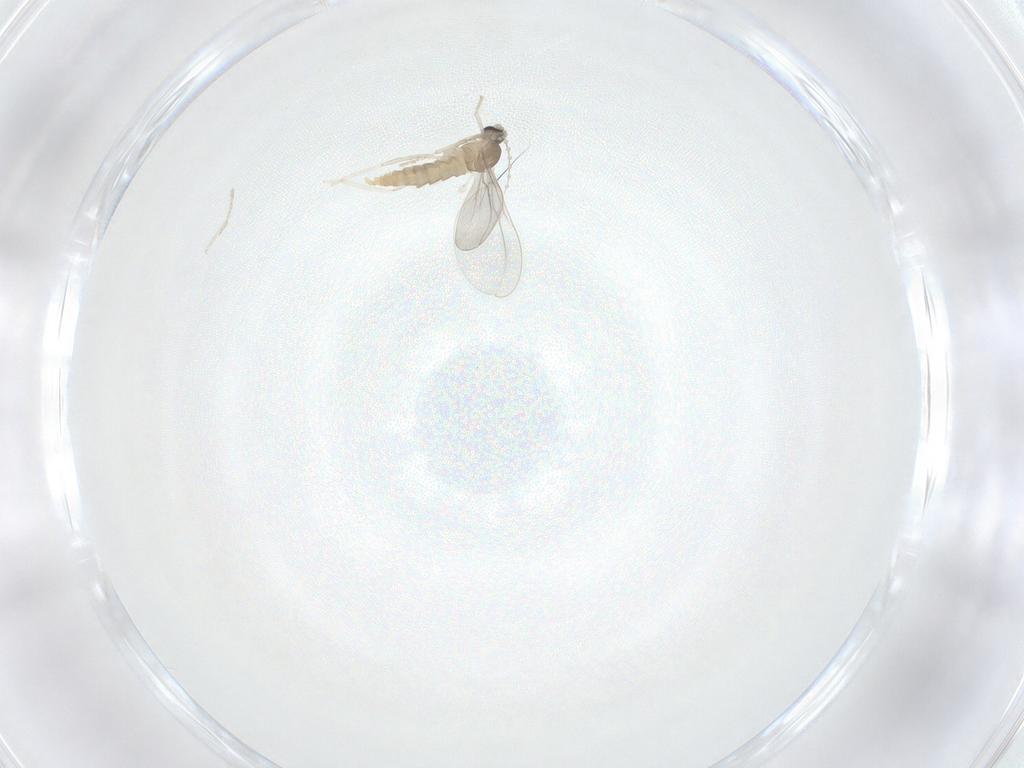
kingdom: Animalia
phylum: Arthropoda
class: Insecta
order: Diptera
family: Cecidomyiidae
